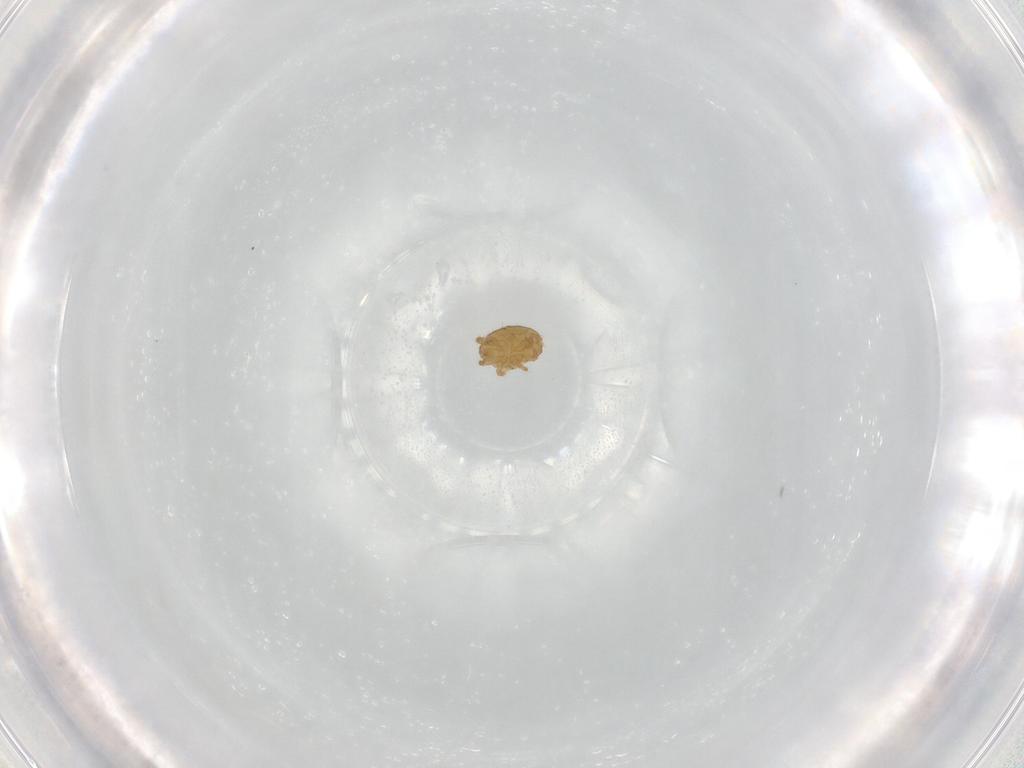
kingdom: Animalia
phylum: Arthropoda
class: Arachnida
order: Trombidiformes
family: Stigmaeidae
